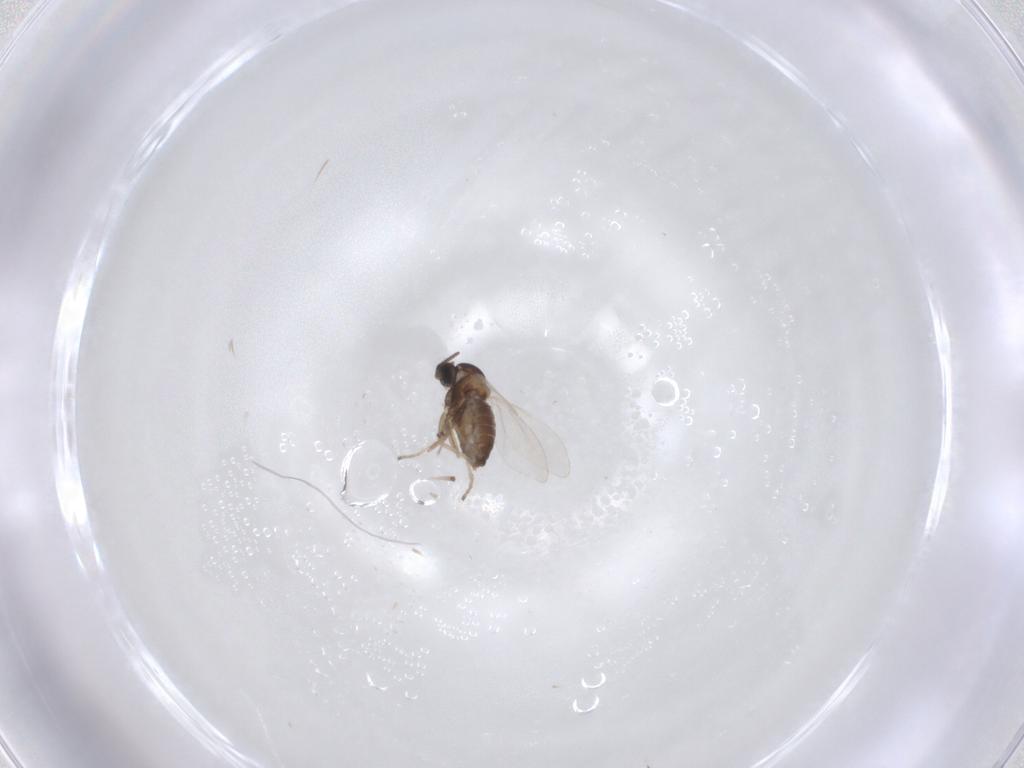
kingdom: Animalia
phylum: Arthropoda
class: Insecta
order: Diptera
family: Cecidomyiidae
